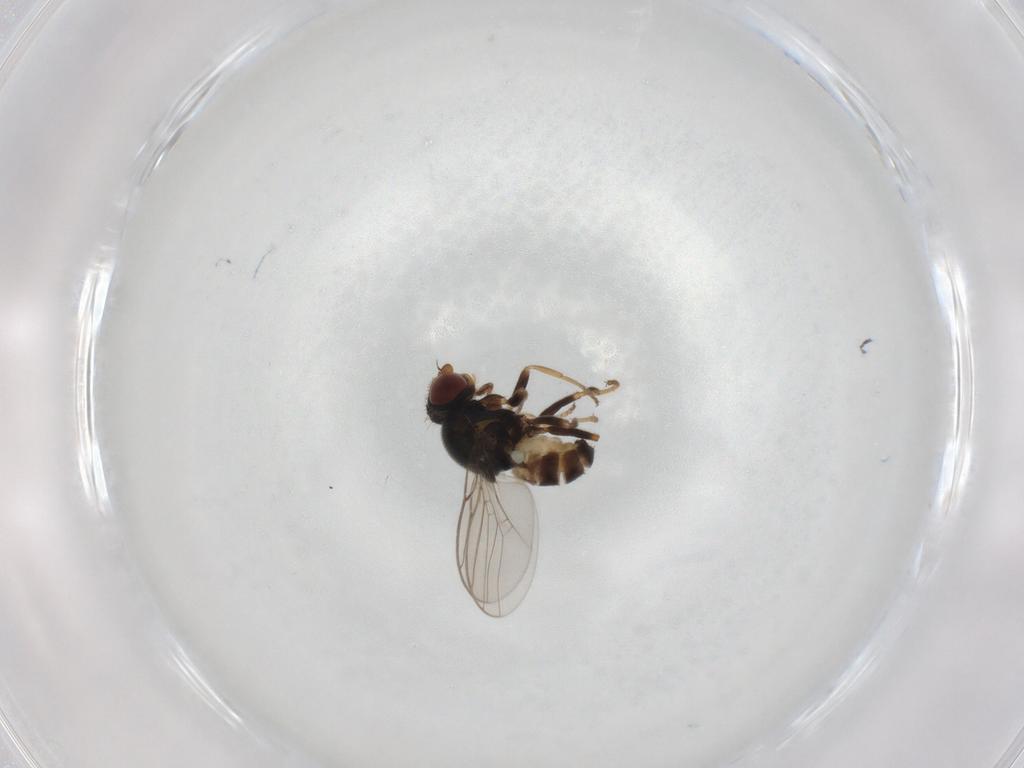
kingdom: Animalia
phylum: Arthropoda
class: Insecta
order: Diptera
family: Chloropidae
